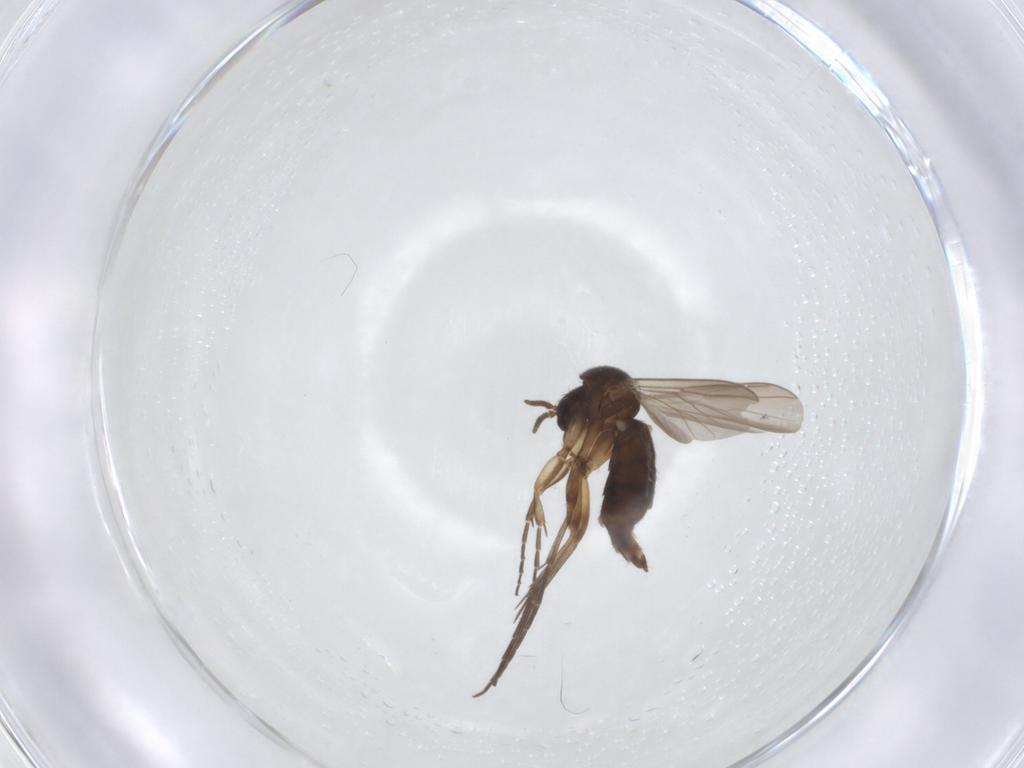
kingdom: Animalia
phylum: Arthropoda
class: Insecta
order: Diptera
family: Mycetophilidae
